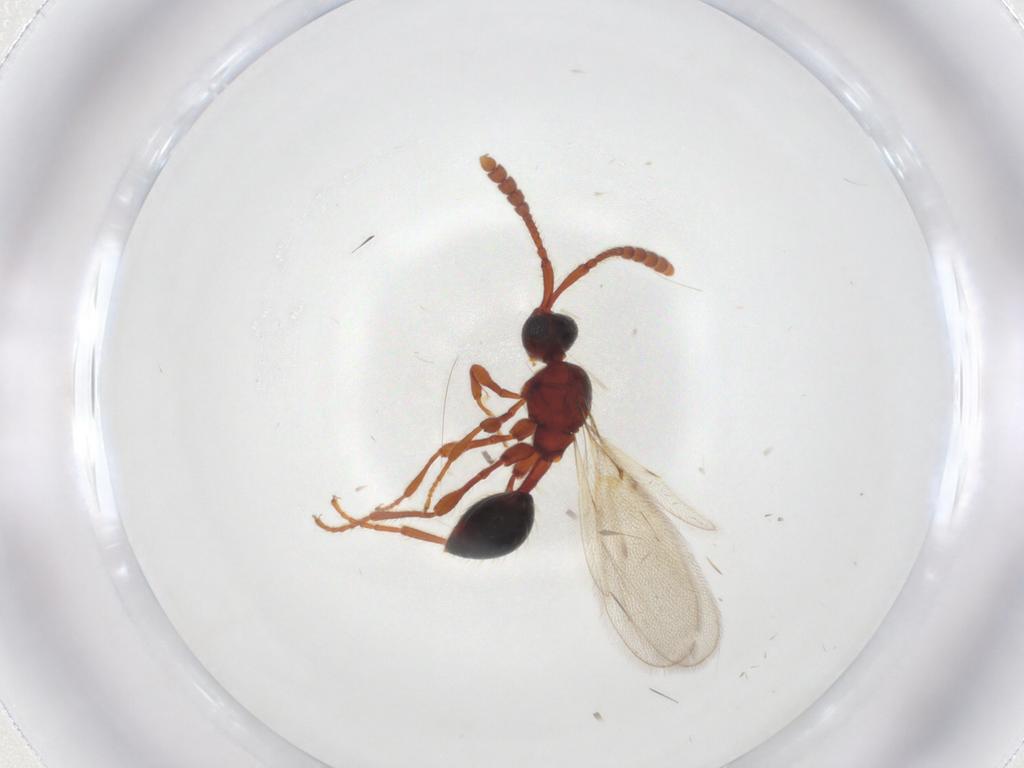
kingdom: Animalia
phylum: Arthropoda
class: Insecta
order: Hymenoptera
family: Diapriidae
